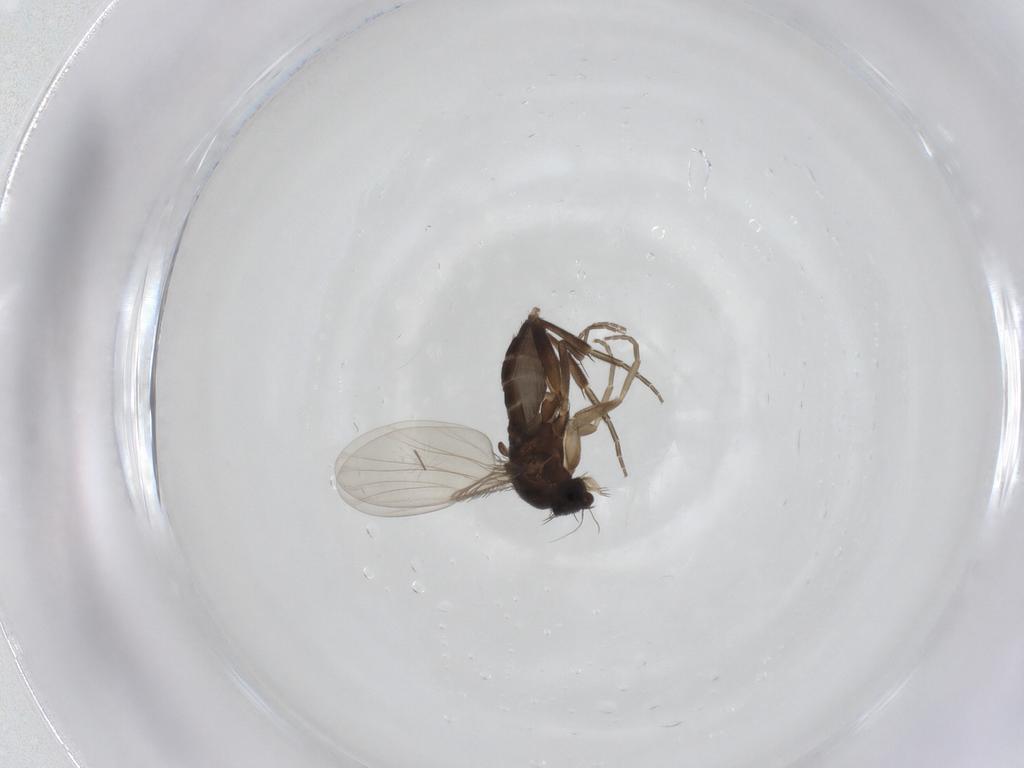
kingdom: Animalia
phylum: Arthropoda
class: Insecta
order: Diptera
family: Phoridae
